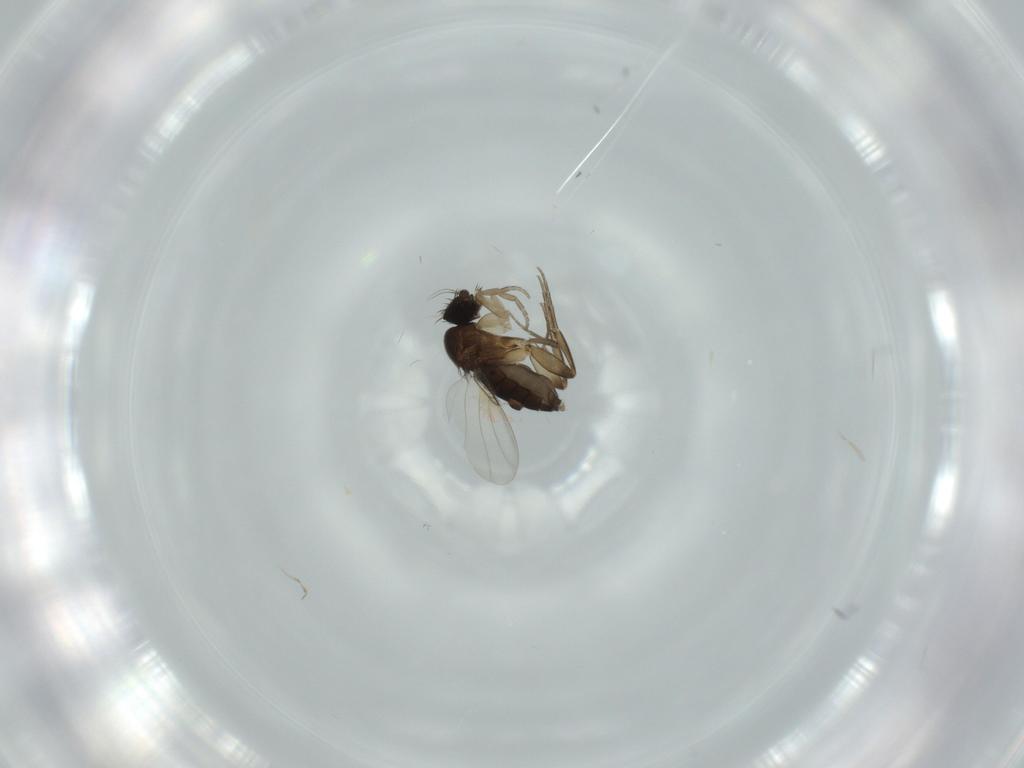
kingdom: Animalia
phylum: Arthropoda
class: Insecta
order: Diptera
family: Phoridae
